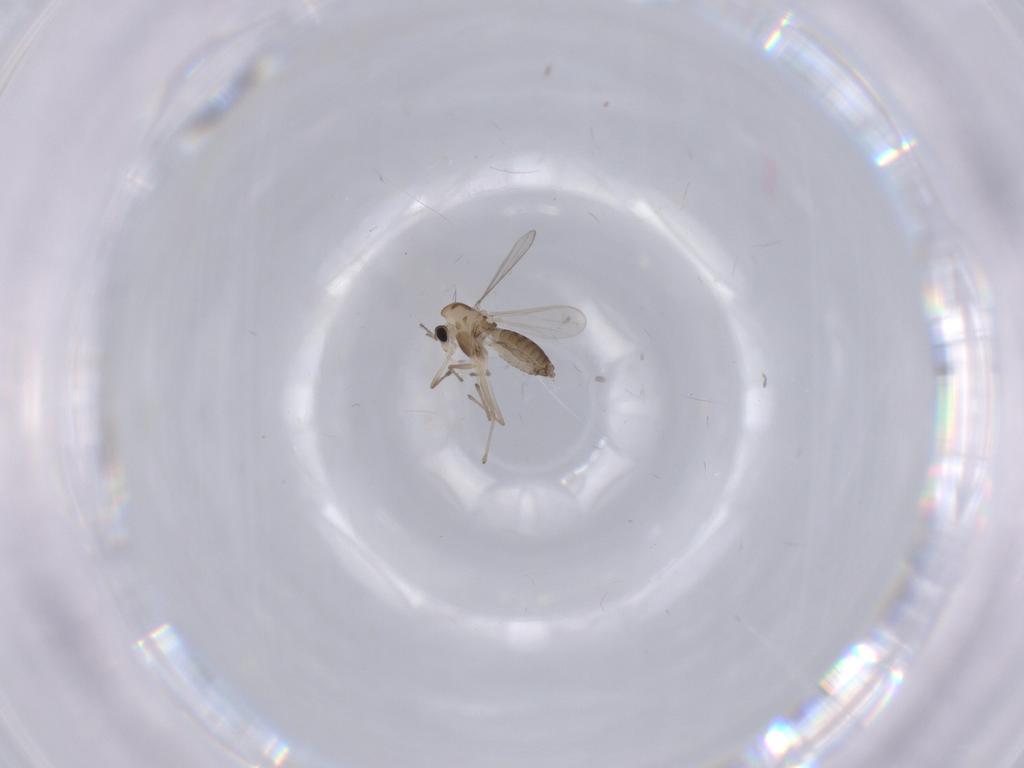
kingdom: Animalia
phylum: Arthropoda
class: Insecta
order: Diptera
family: Chironomidae
